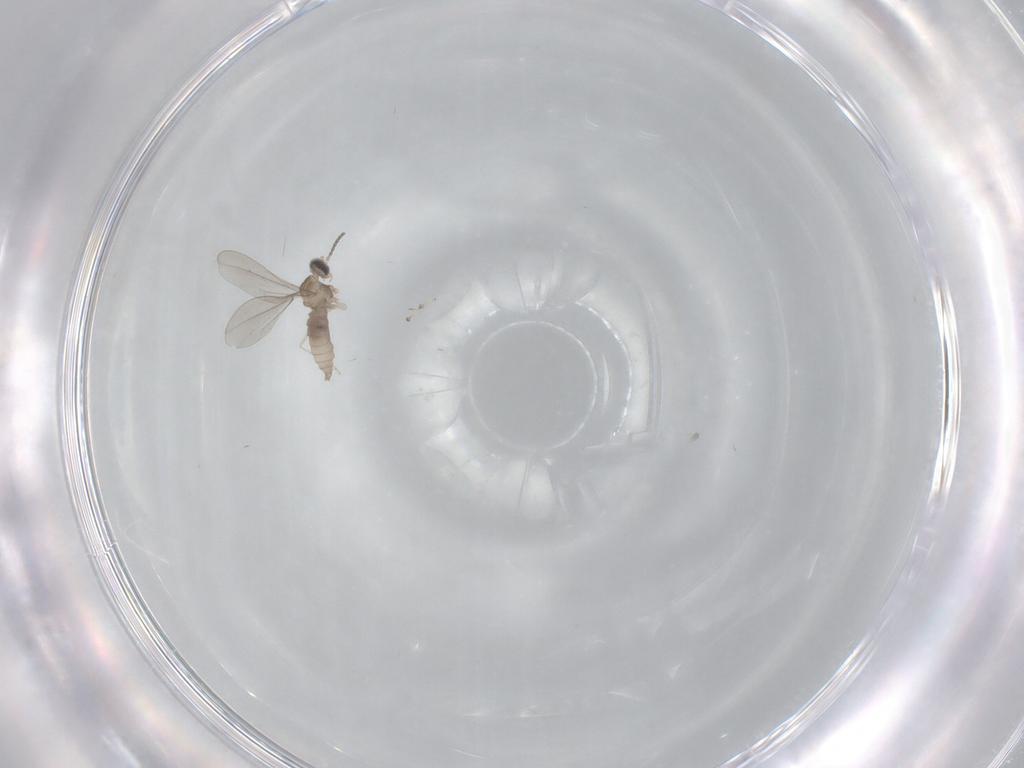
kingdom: Animalia
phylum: Arthropoda
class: Insecta
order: Diptera
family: Cecidomyiidae
